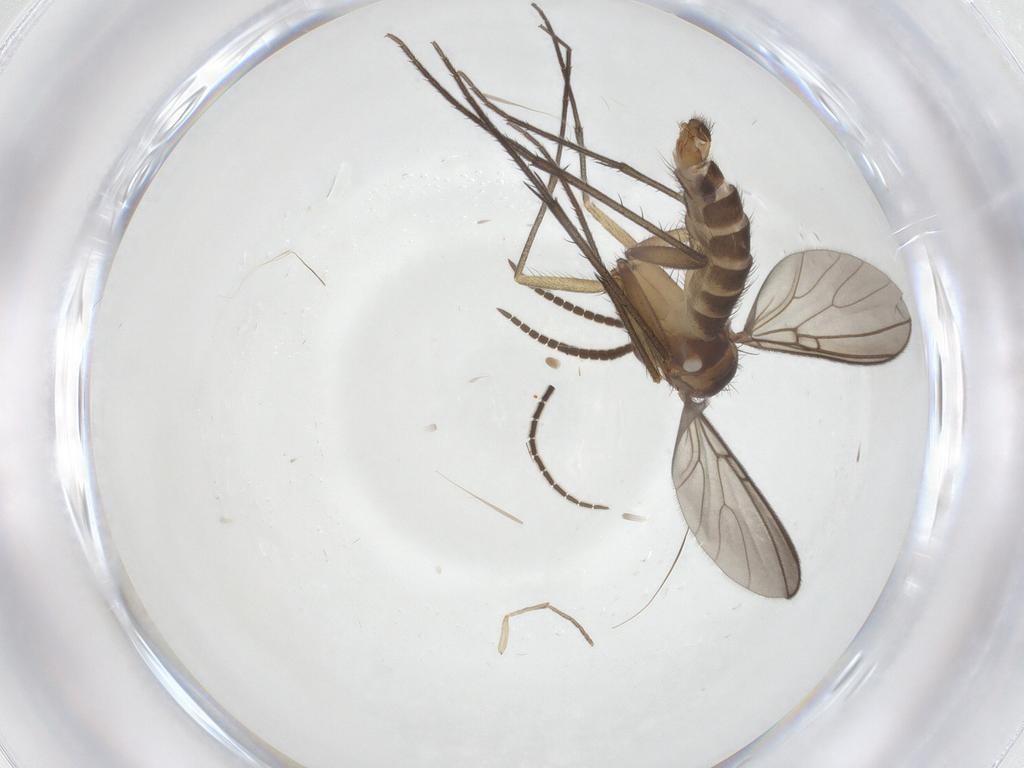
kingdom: Animalia
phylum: Arthropoda
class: Insecta
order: Diptera
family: Mycetophilidae
